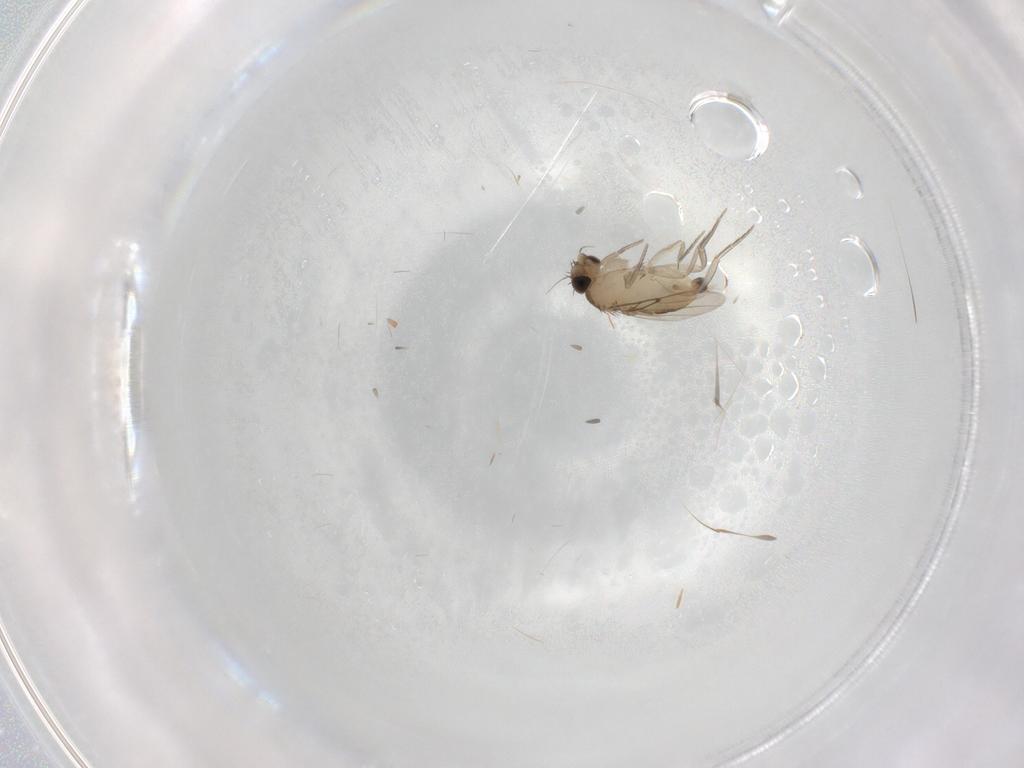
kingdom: Animalia
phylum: Arthropoda
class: Insecta
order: Diptera
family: Phoridae
